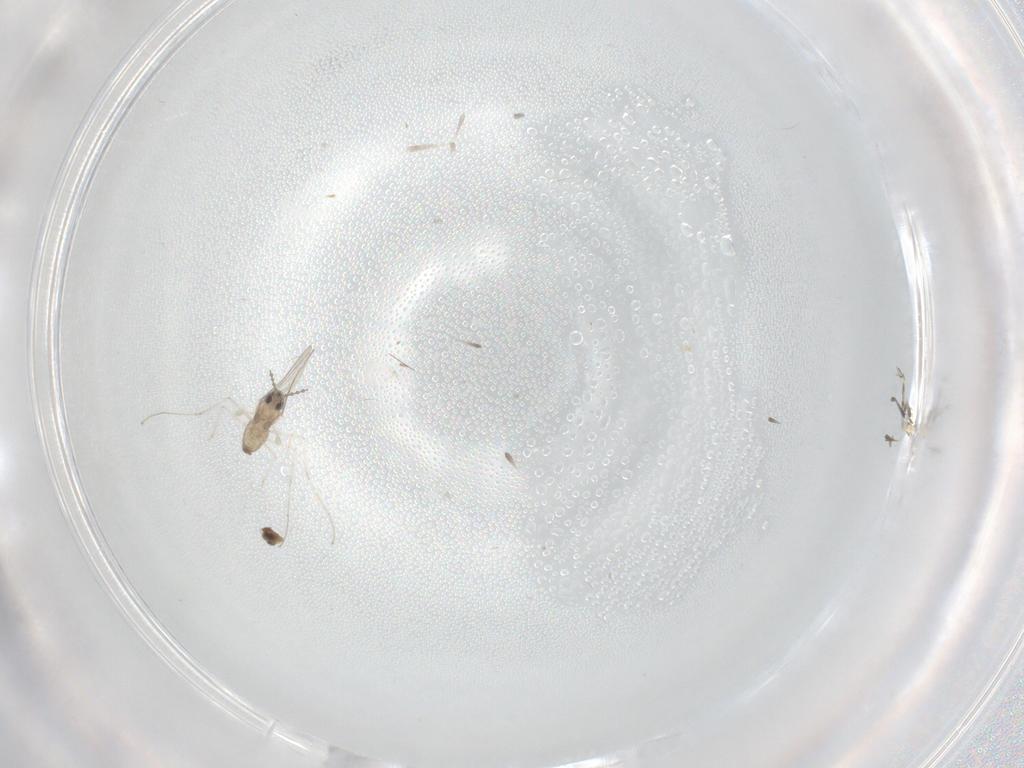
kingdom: Animalia
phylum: Arthropoda
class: Insecta
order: Diptera
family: Cecidomyiidae
